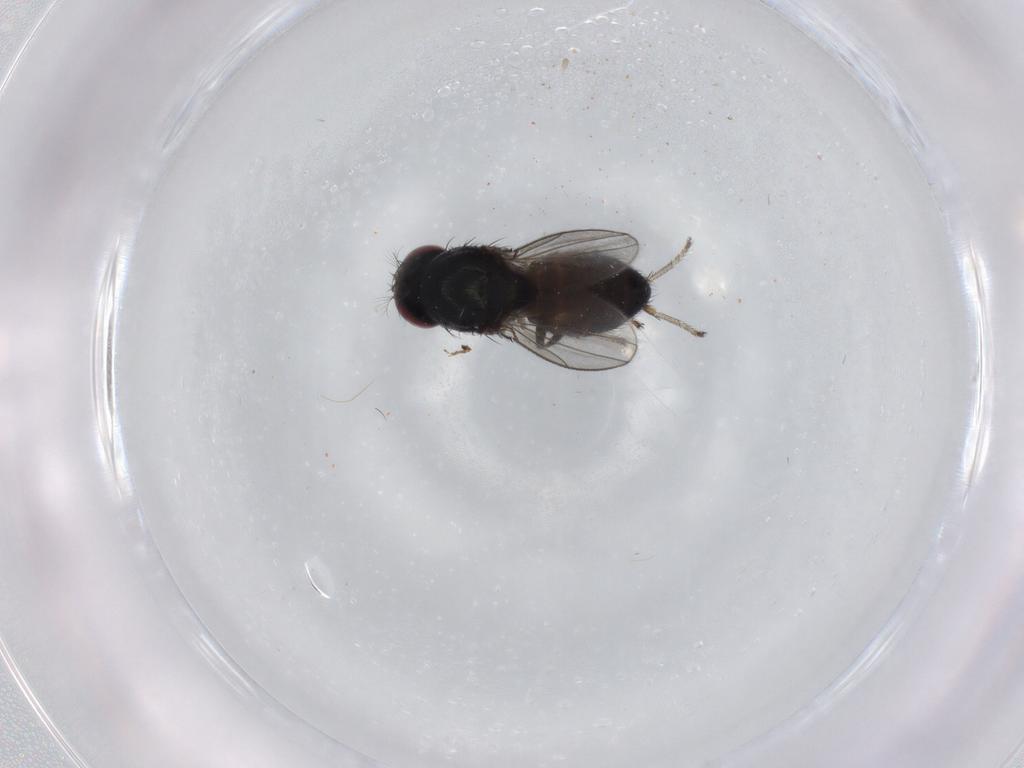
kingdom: Animalia
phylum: Arthropoda
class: Insecta
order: Diptera
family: Ephydridae
